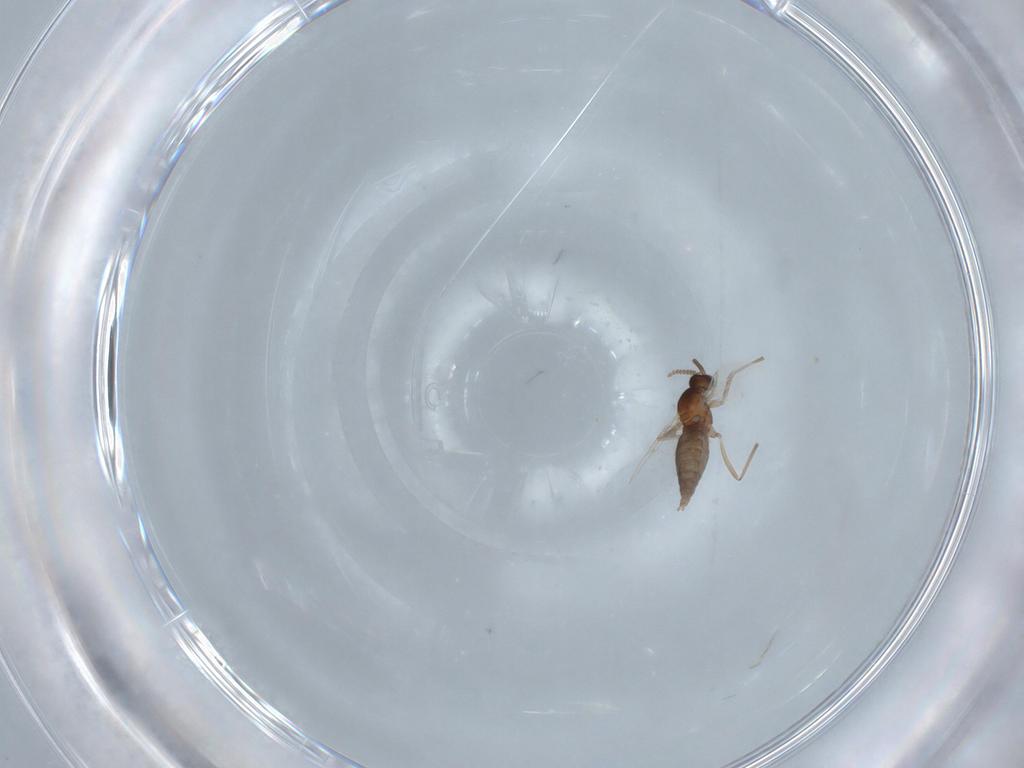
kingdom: Animalia
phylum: Arthropoda
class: Insecta
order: Diptera
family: Cecidomyiidae
